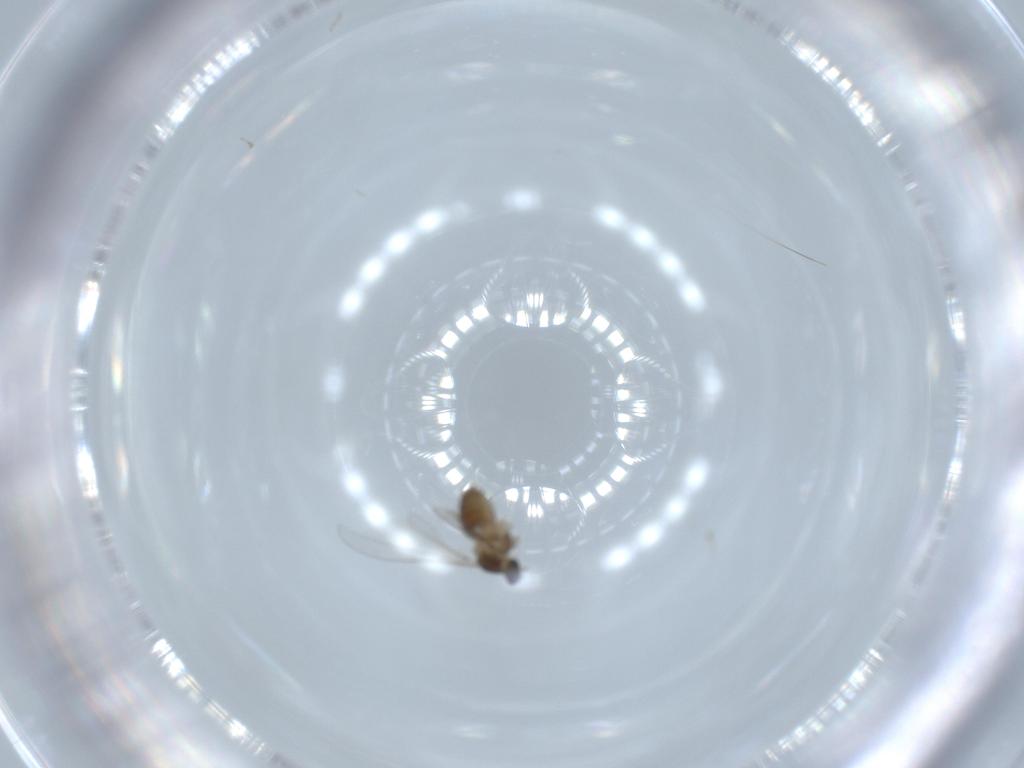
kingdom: Animalia
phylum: Arthropoda
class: Insecta
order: Diptera
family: Cecidomyiidae
